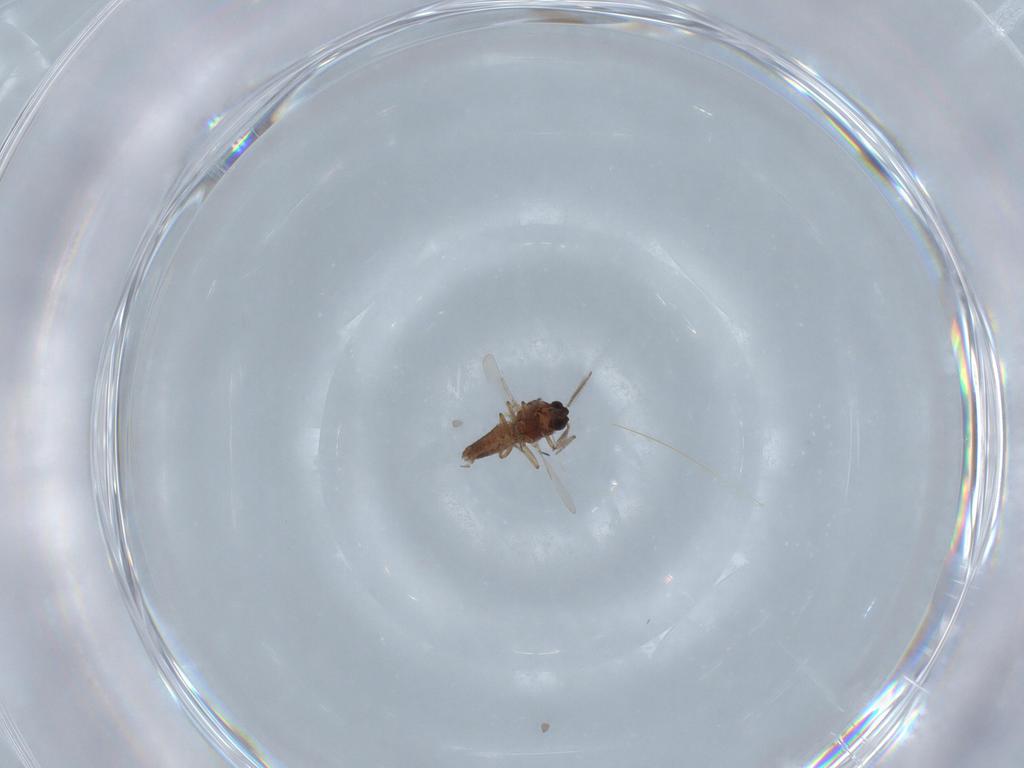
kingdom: Animalia
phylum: Arthropoda
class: Insecta
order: Diptera
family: Ceratopogonidae
